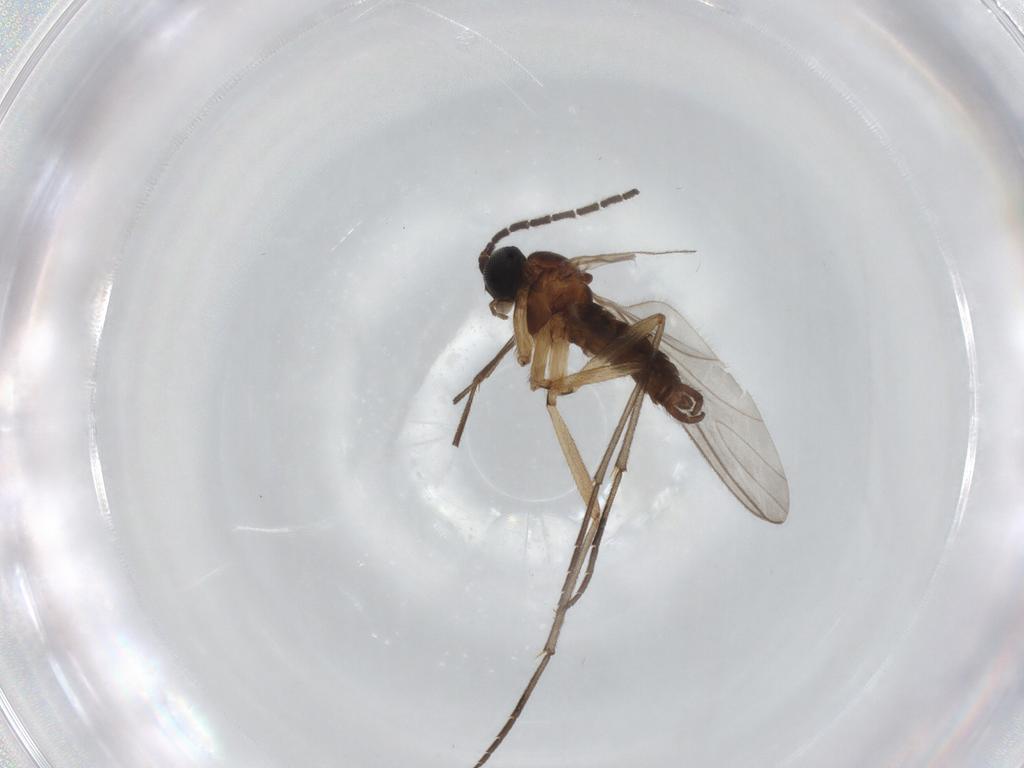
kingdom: Animalia
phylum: Arthropoda
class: Insecta
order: Diptera
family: Sciaridae
